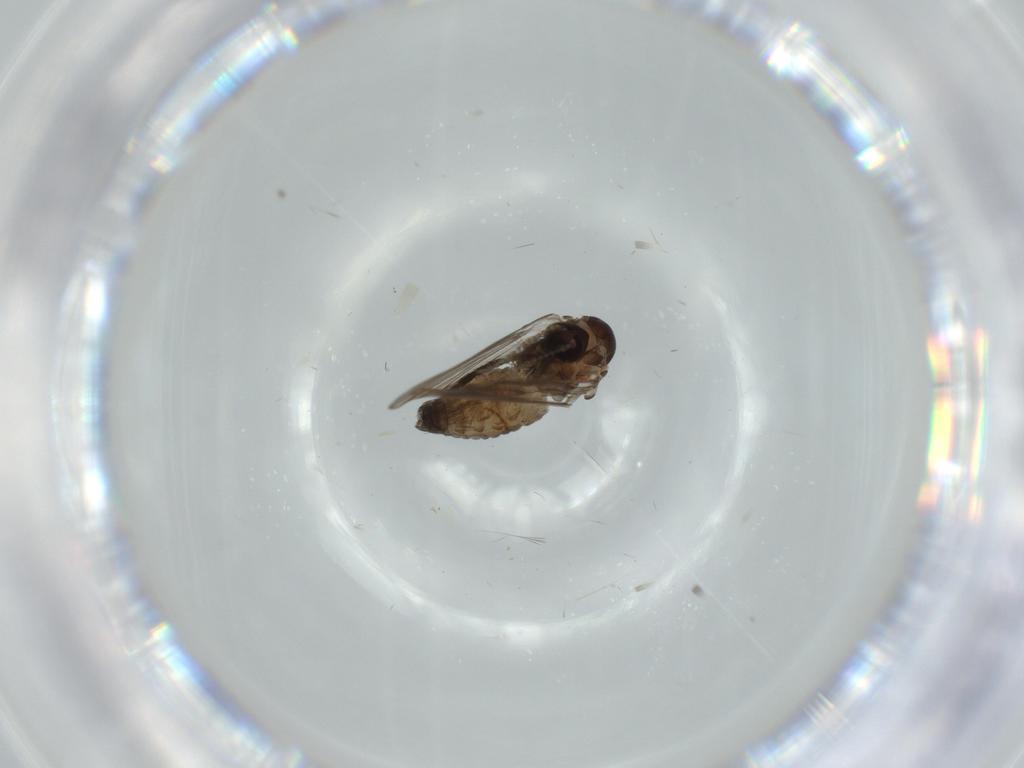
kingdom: Animalia
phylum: Arthropoda
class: Insecta
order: Diptera
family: Psychodidae
